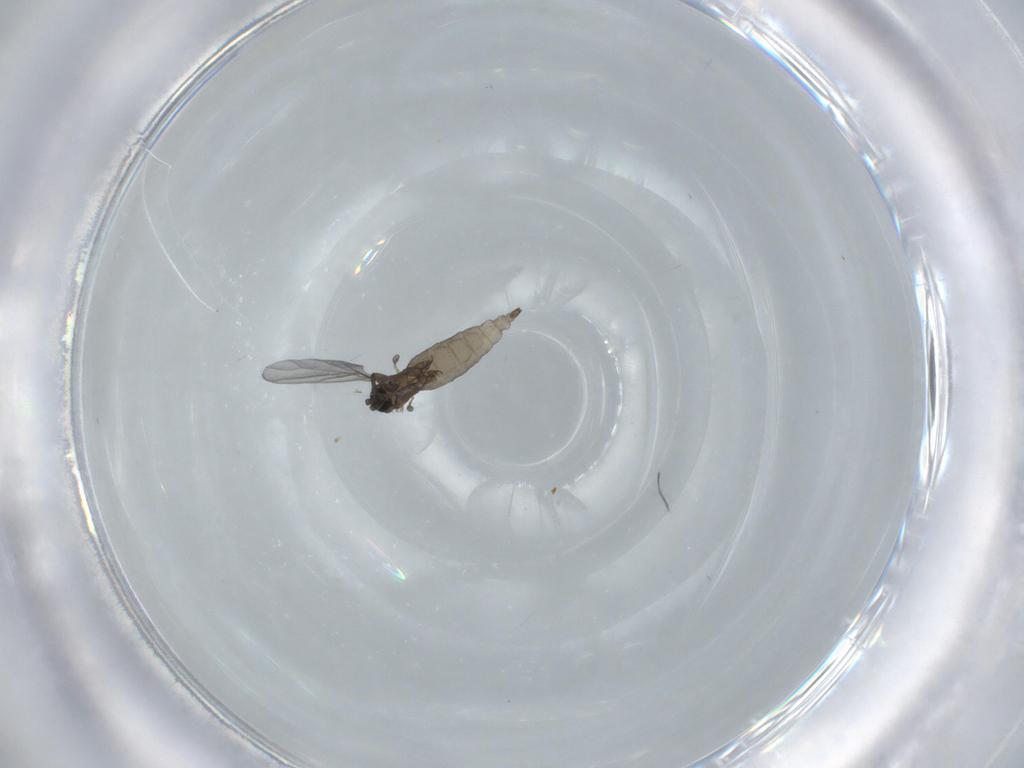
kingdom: Animalia
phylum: Arthropoda
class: Insecta
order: Diptera
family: Sciaridae
